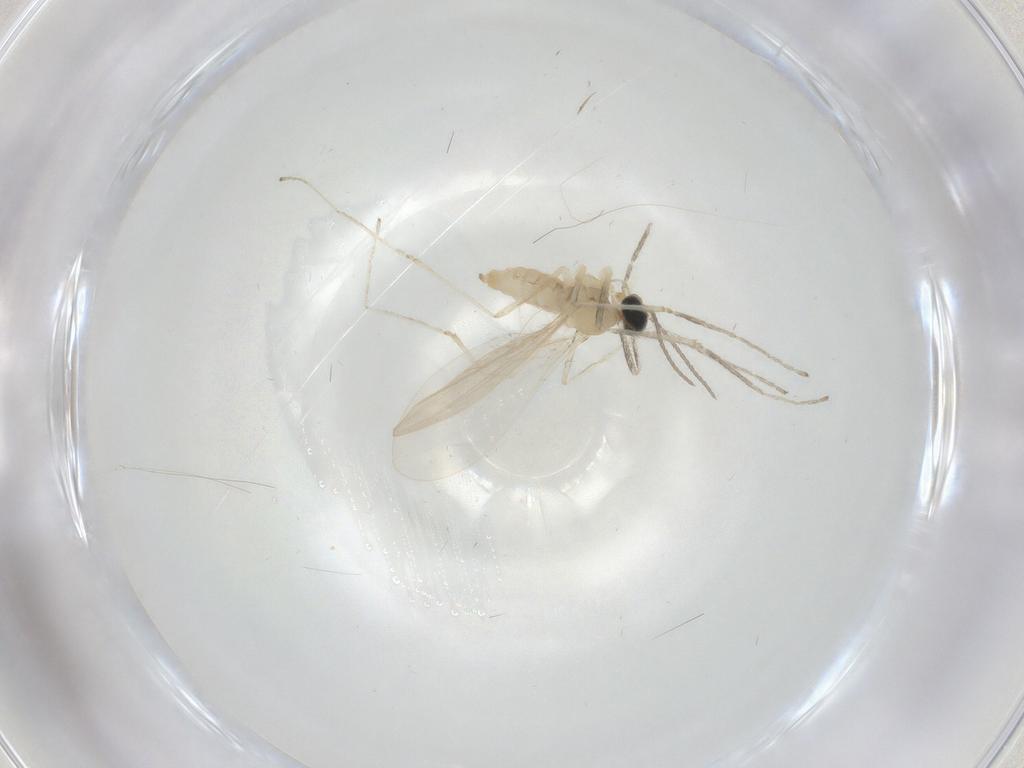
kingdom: Animalia
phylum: Arthropoda
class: Insecta
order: Diptera
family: Cecidomyiidae
